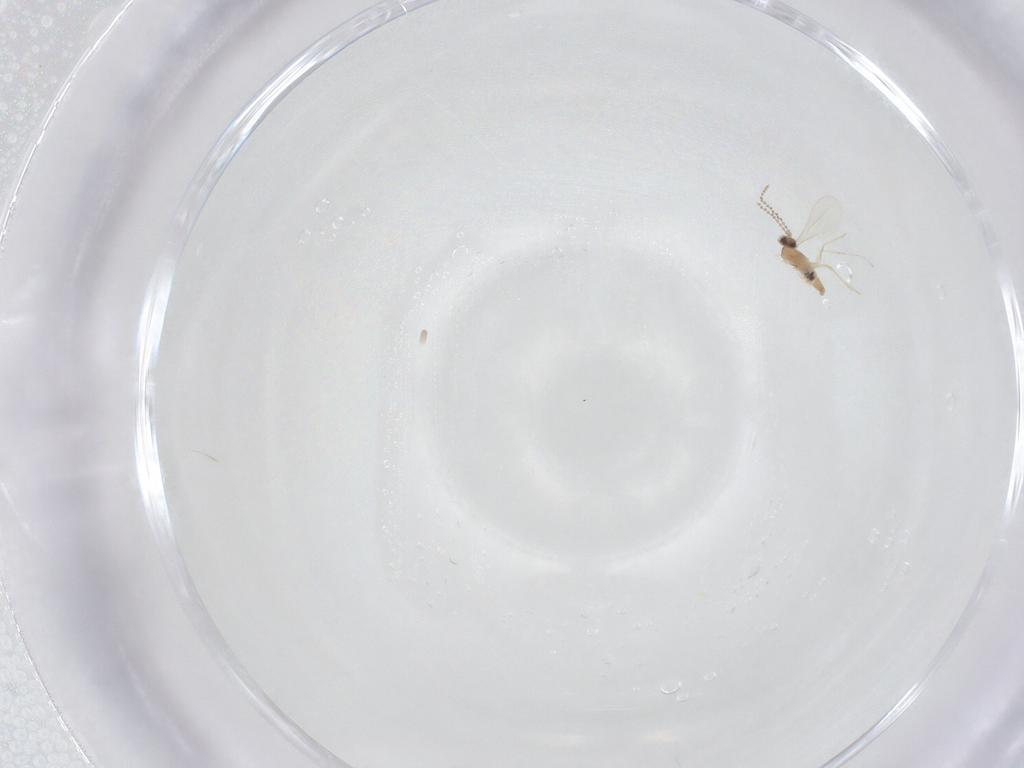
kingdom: Animalia
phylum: Arthropoda
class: Insecta
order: Diptera
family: Cecidomyiidae
